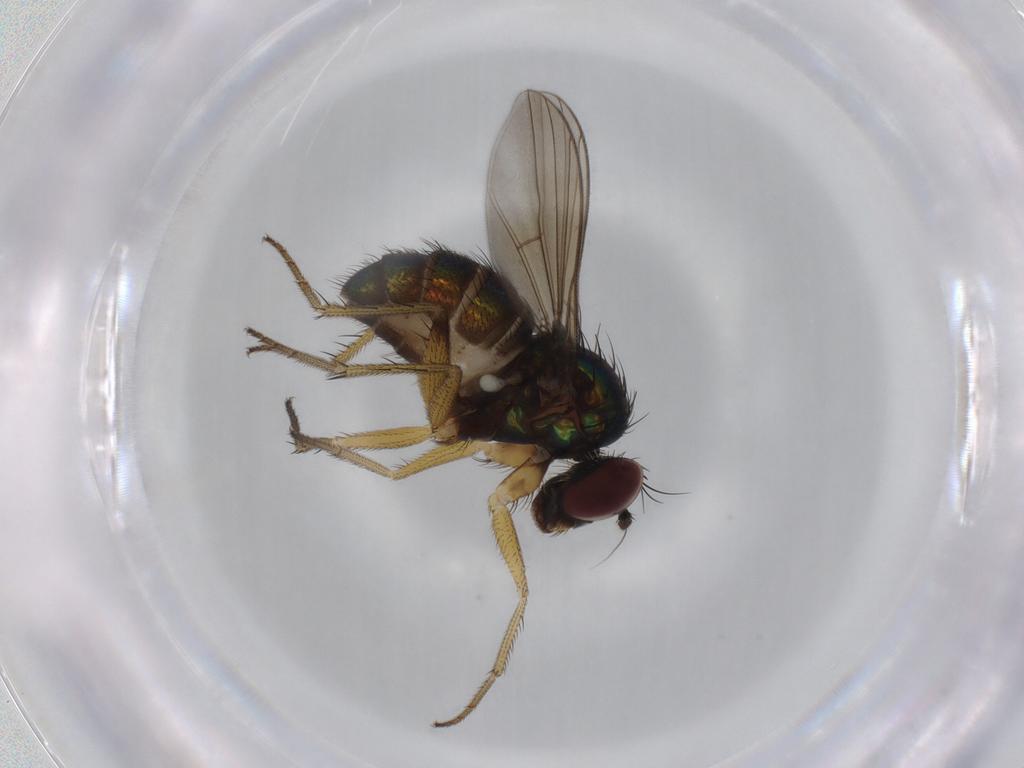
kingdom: Animalia
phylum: Arthropoda
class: Insecta
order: Diptera
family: Dolichopodidae
